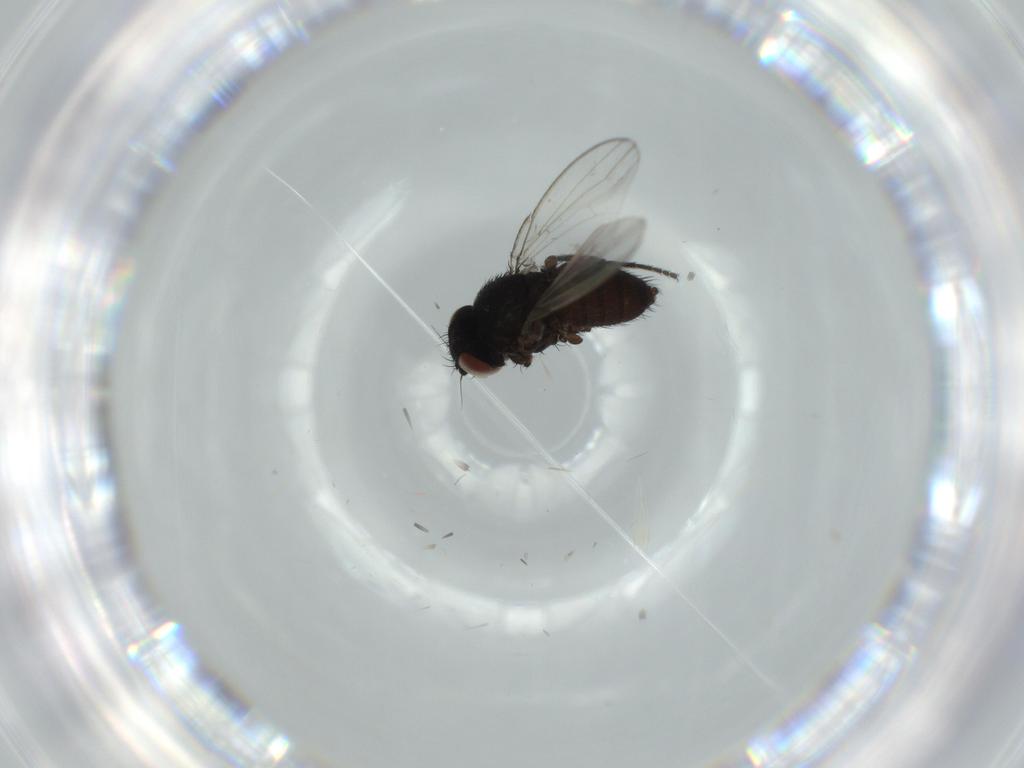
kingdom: Animalia
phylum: Arthropoda
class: Insecta
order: Diptera
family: Milichiidae
